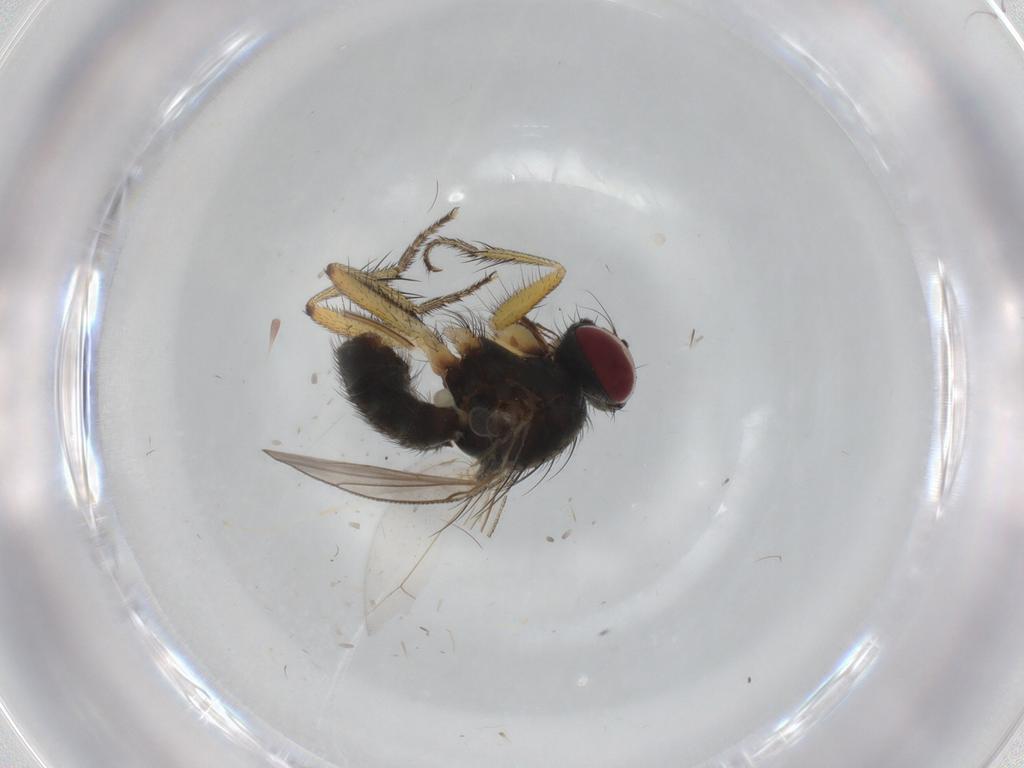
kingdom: Animalia
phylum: Arthropoda
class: Insecta
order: Diptera
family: Muscidae
